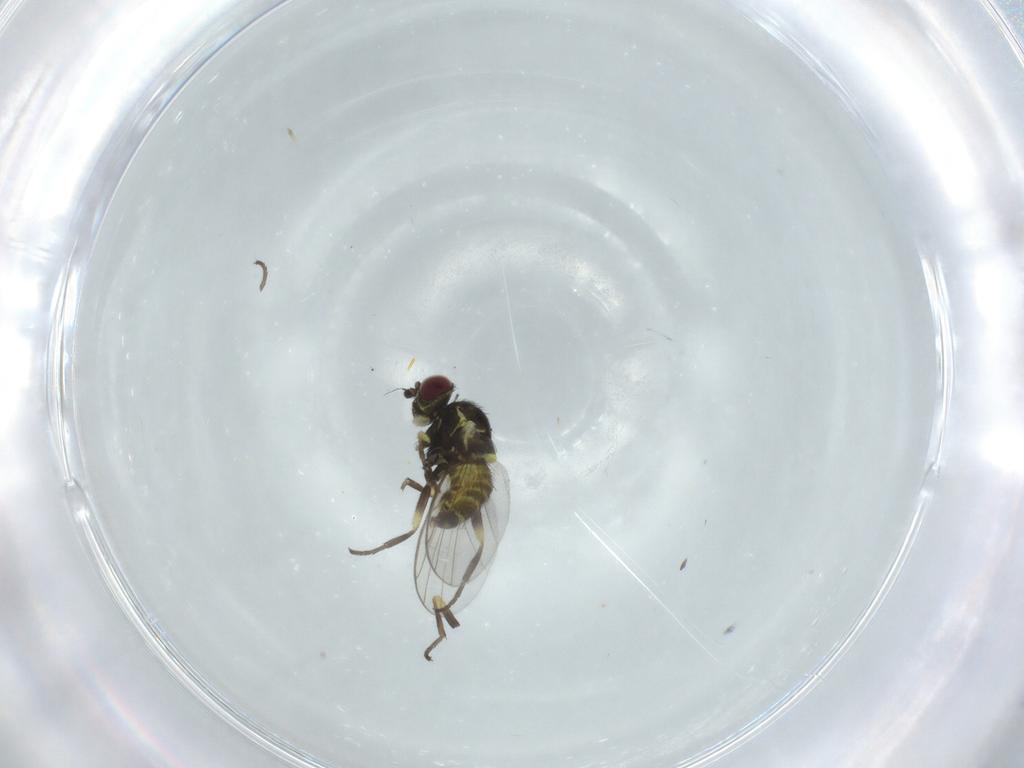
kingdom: Animalia
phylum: Arthropoda
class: Insecta
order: Diptera
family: Agromyzidae
